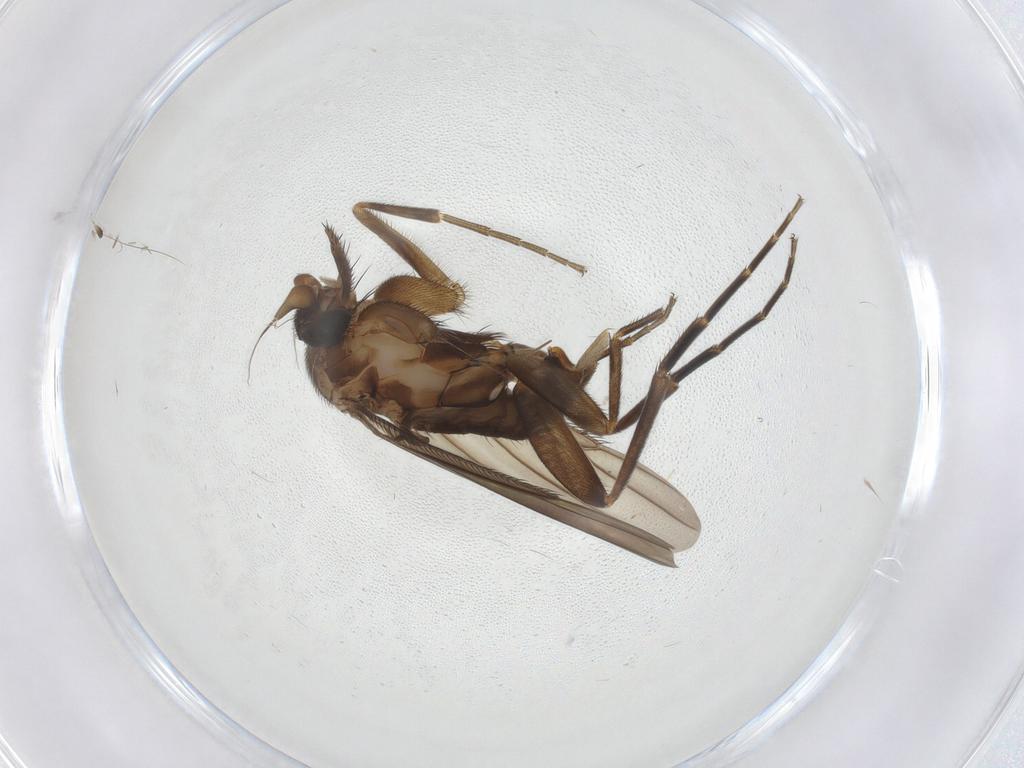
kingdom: Animalia
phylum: Arthropoda
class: Insecta
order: Diptera
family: Phoridae
